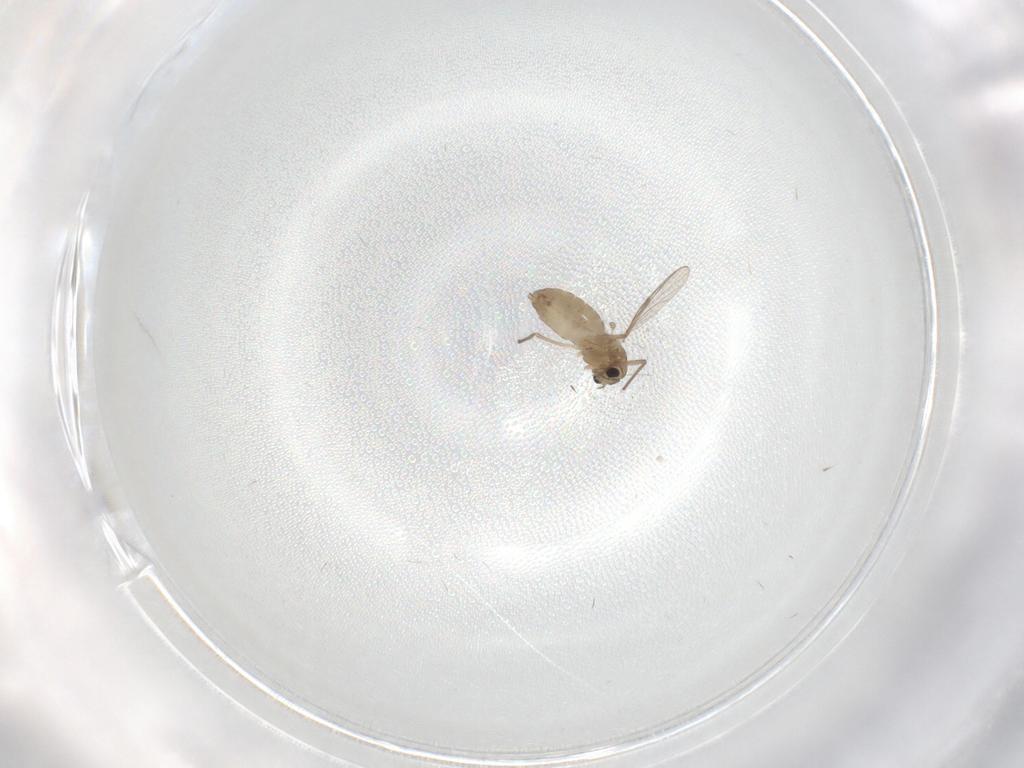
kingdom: Animalia
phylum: Arthropoda
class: Insecta
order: Diptera
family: Chironomidae
